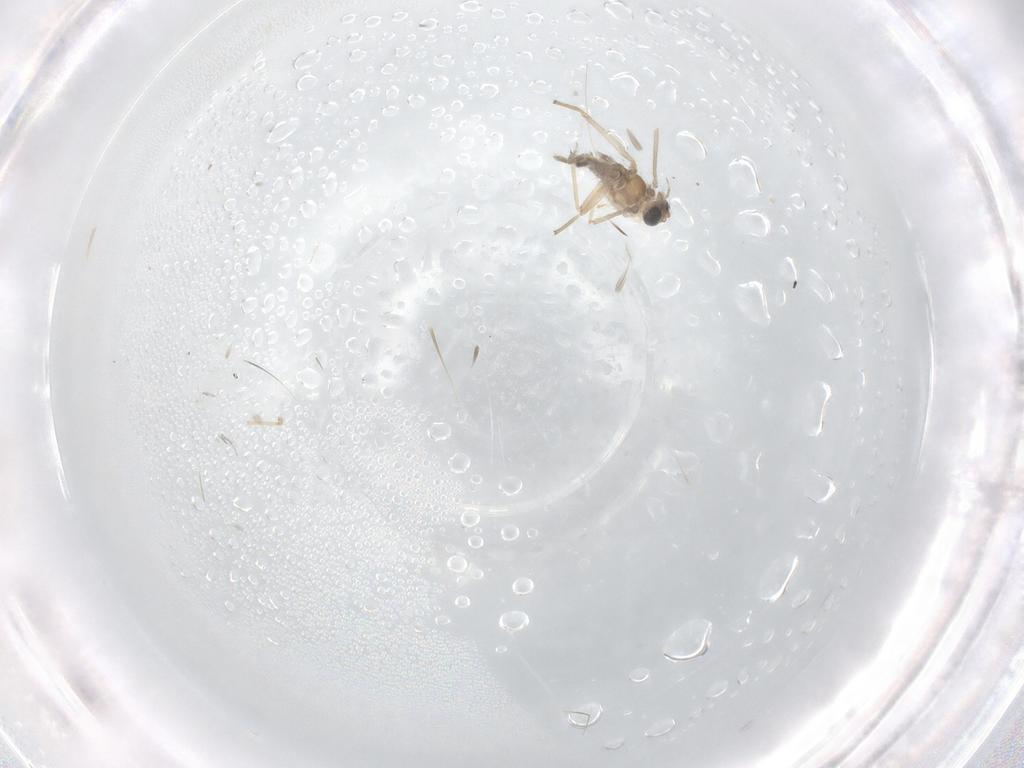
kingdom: Animalia
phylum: Arthropoda
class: Insecta
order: Diptera
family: Sciaridae
